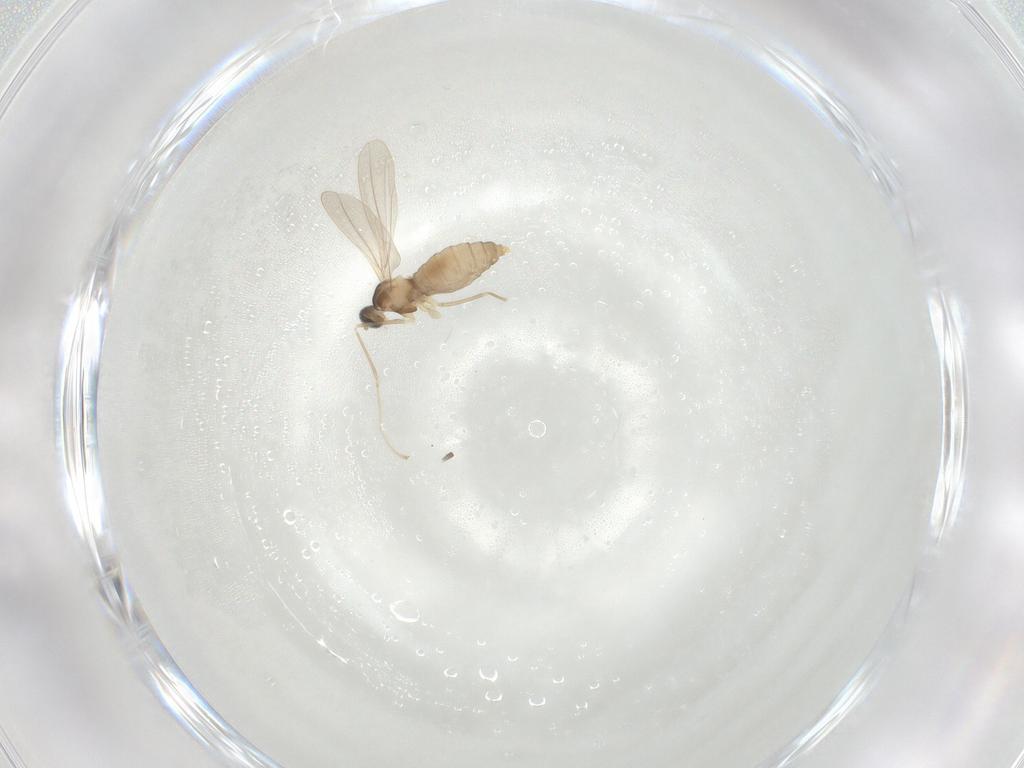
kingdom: Animalia
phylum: Arthropoda
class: Insecta
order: Diptera
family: Cecidomyiidae
